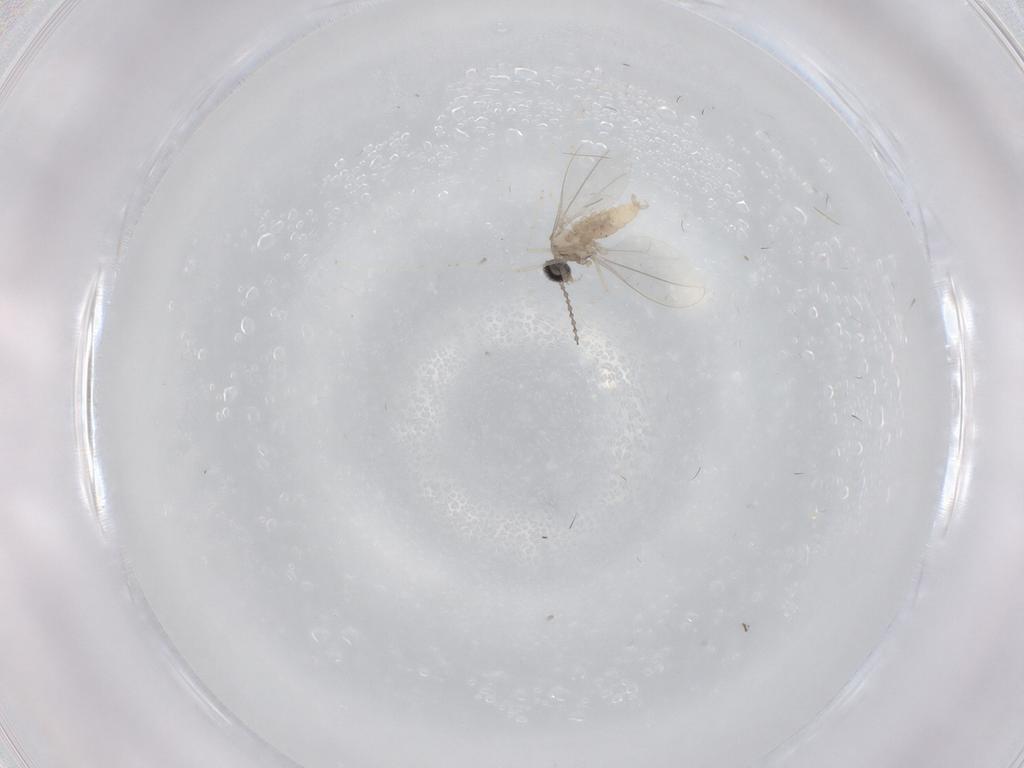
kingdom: Animalia
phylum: Arthropoda
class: Insecta
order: Diptera
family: Cecidomyiidae
